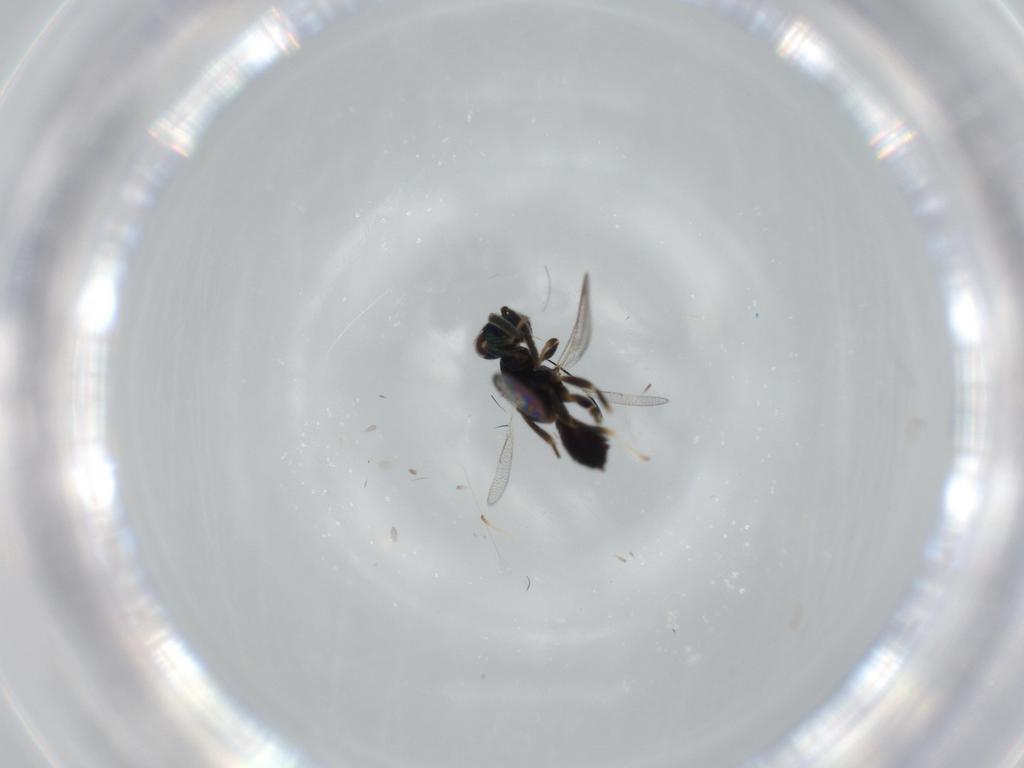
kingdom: Animalia
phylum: Arthropoda
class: Insecta
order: Hymenoptera
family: Cleonyminae
